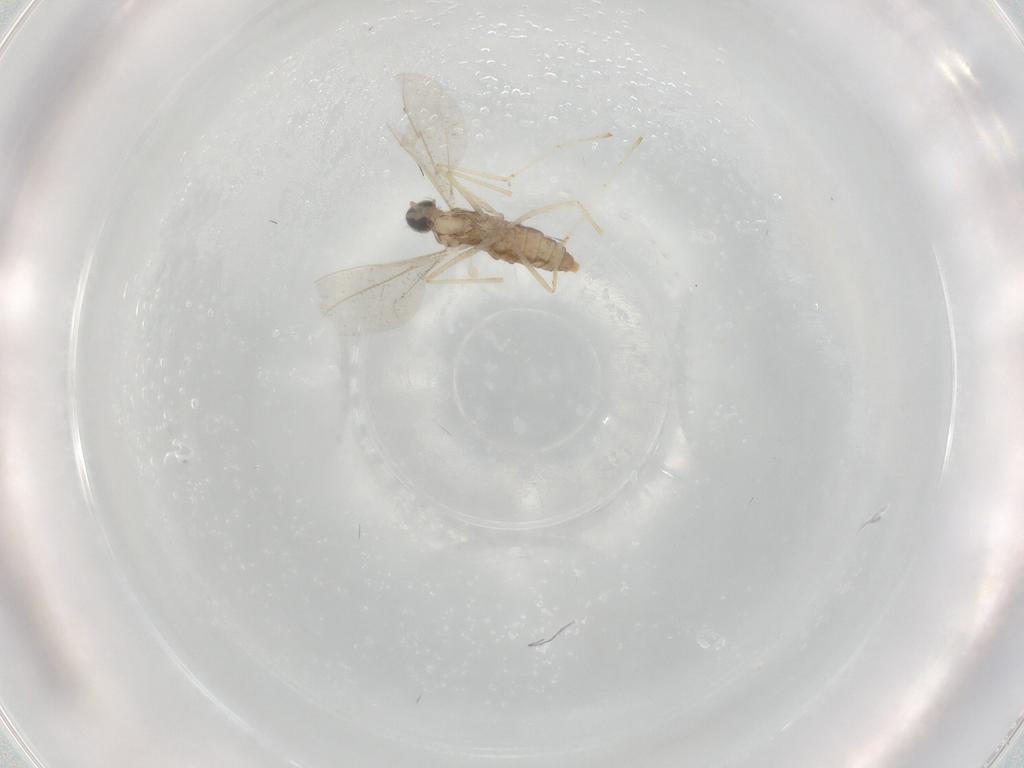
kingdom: Animalia
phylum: Arthropoda
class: Insecta
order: Diptera
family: Cecidomyiidae
